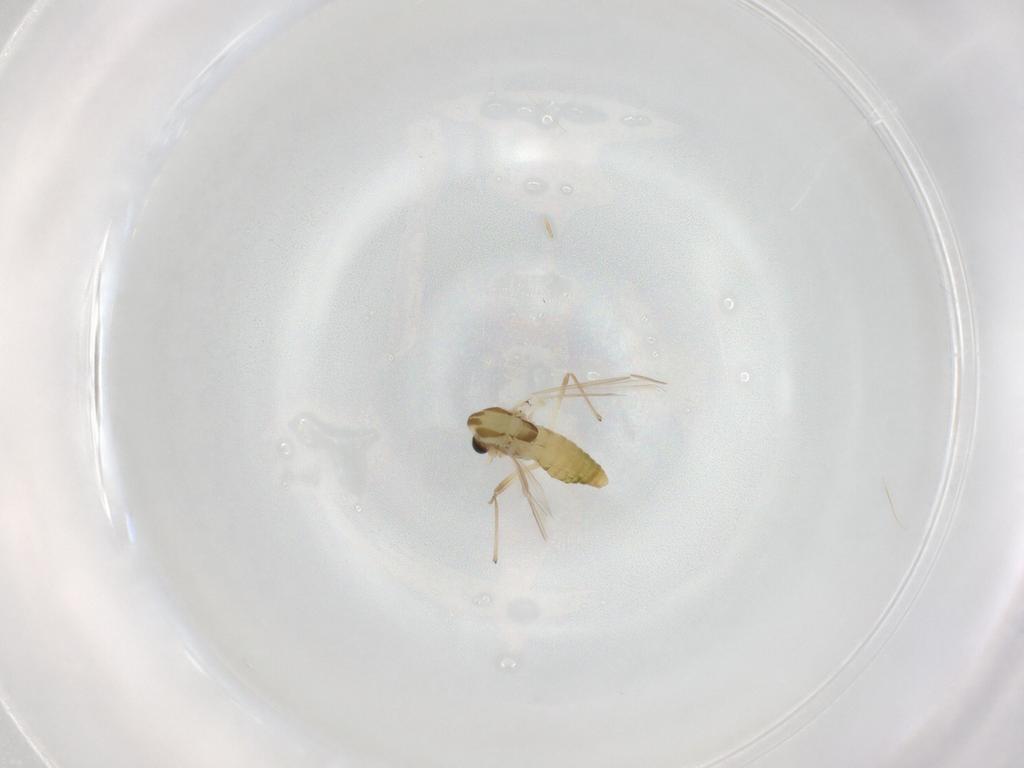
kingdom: Animalia
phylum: Arthropoda
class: Insecta
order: Diptera
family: Chironomidae
